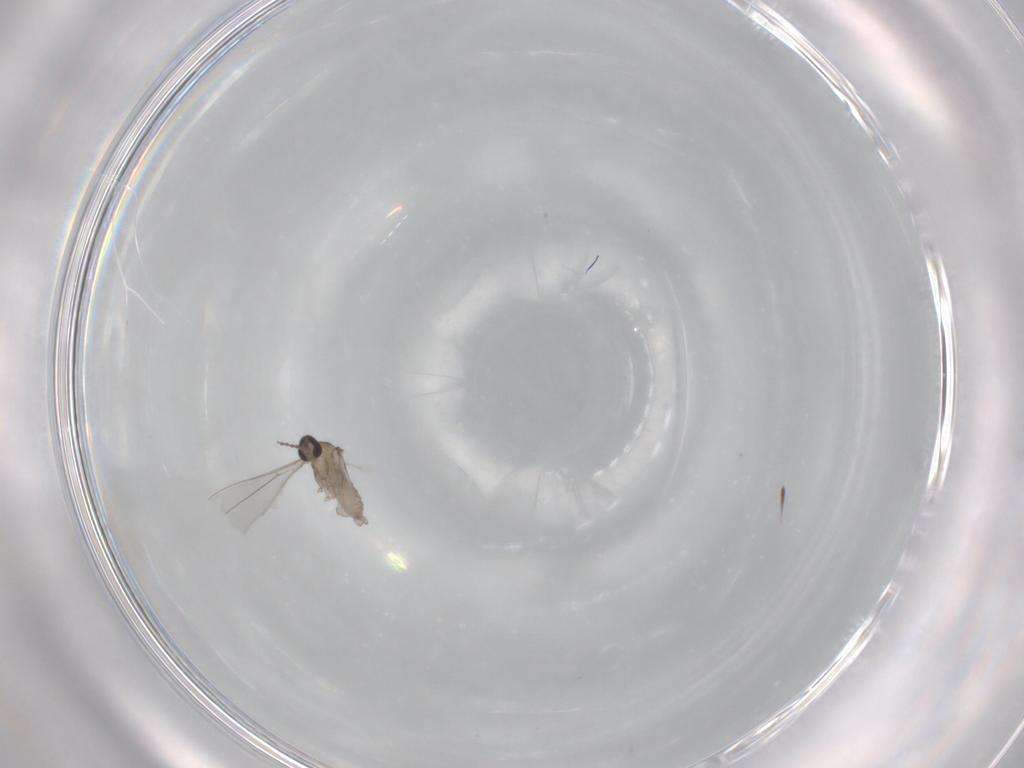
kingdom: Animalia
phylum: Arthropoda
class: Insecta
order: Diptera
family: Cecidomyiidae
